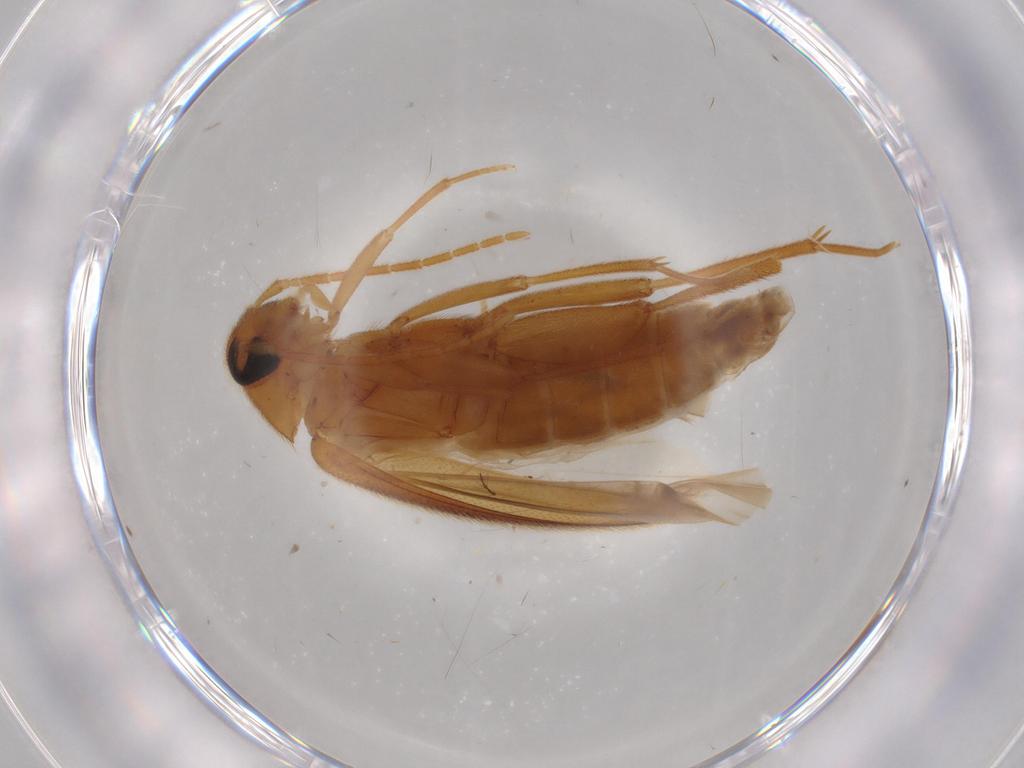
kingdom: Animalia
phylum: Arthropoda
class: Insecta
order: Coleoptera
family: Scraptiidae
